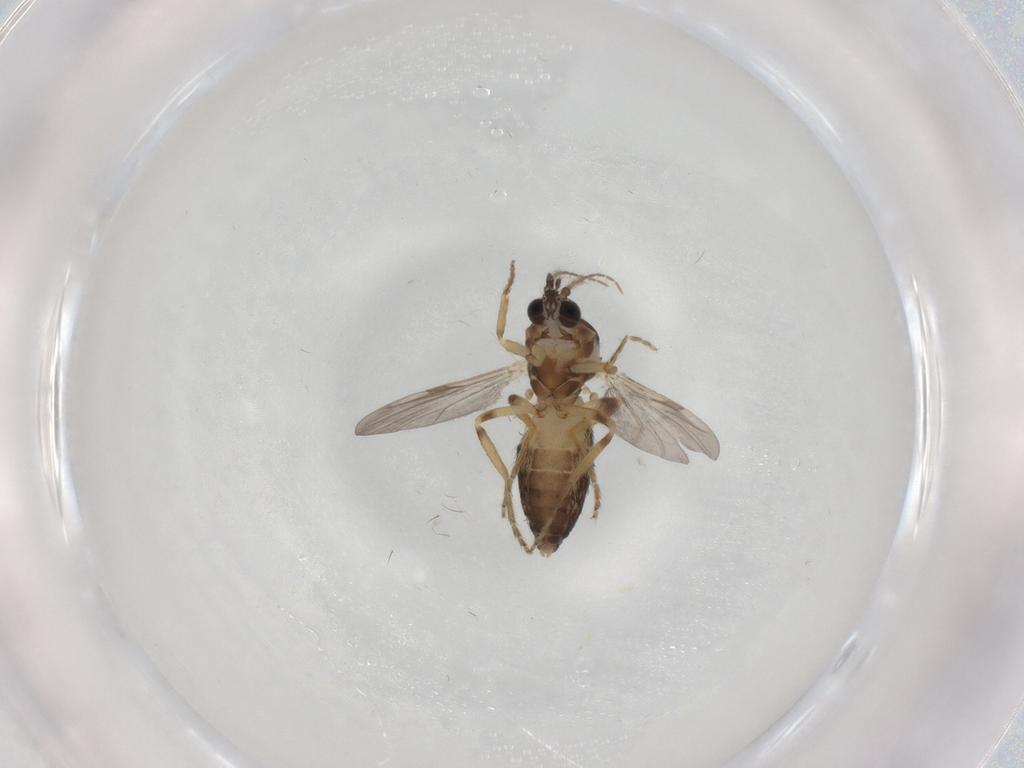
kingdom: Animalia
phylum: Arthropoda
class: Insecta
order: Diptera
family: Ceratopogonidae
